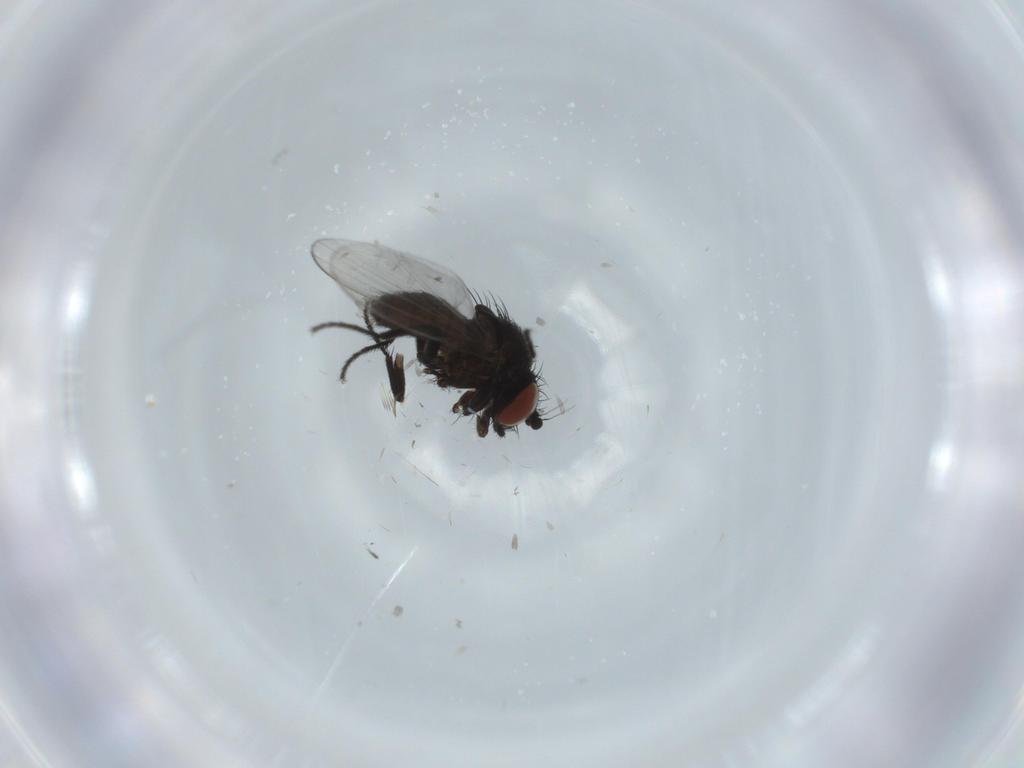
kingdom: Animalia
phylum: Arthropoda
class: Insecta
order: Diptera
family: Milichiidae
